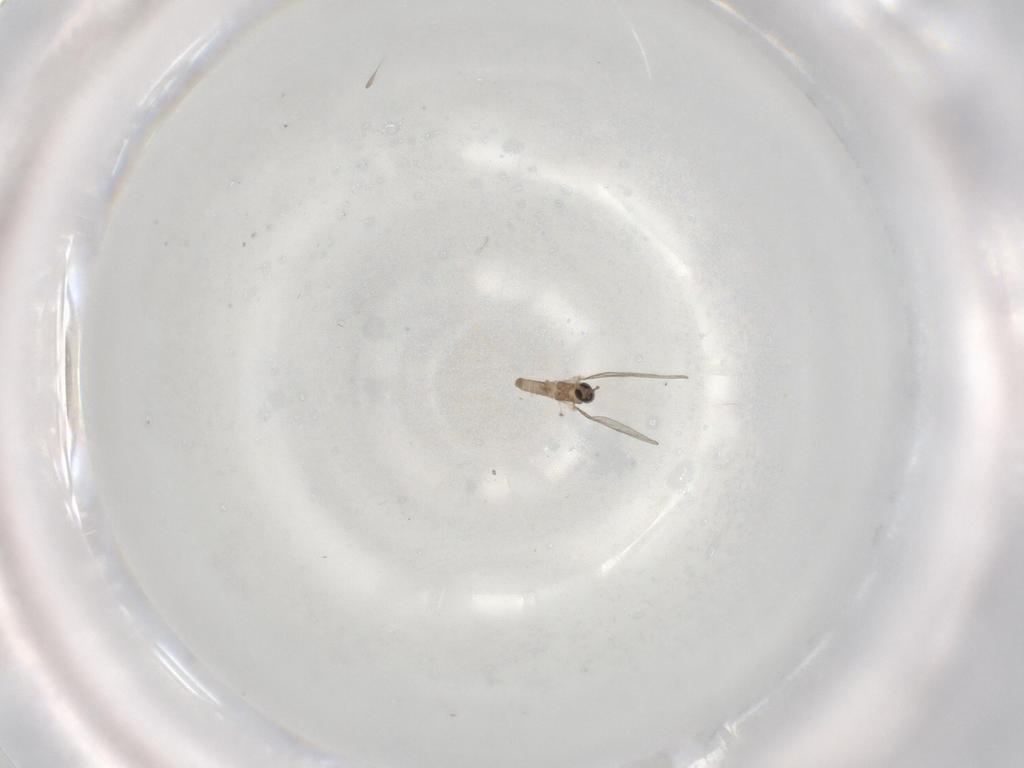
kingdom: Animalia
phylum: Arthropoda
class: Insecta
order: Diptera
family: Cecidomyiidae
